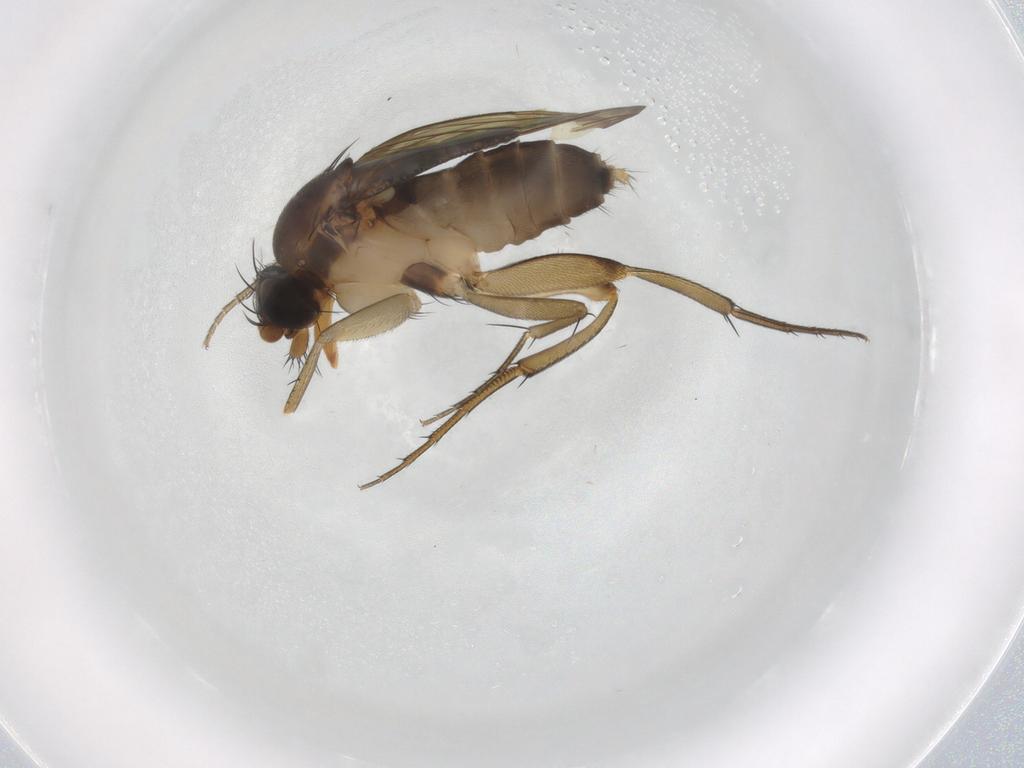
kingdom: Animalia
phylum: Arthropoda
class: Insecta
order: Diptera
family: Phoridae
